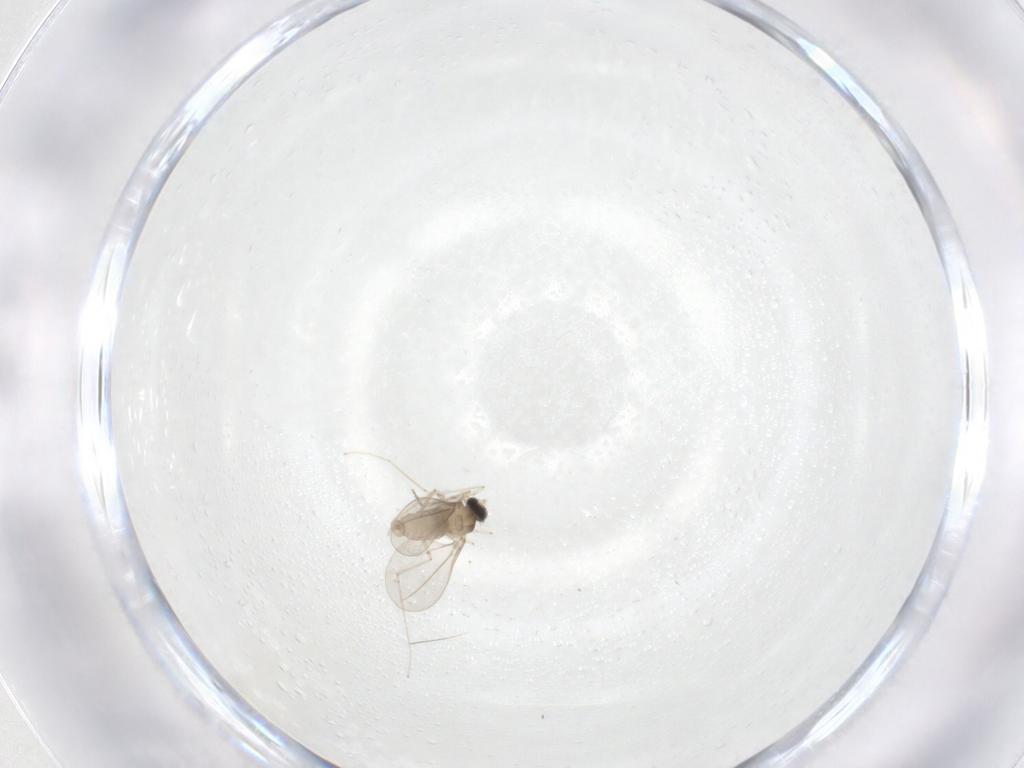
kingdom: Animalia
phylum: Arthropoda
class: Insecta
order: Diptera
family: Cecidomyiidae
